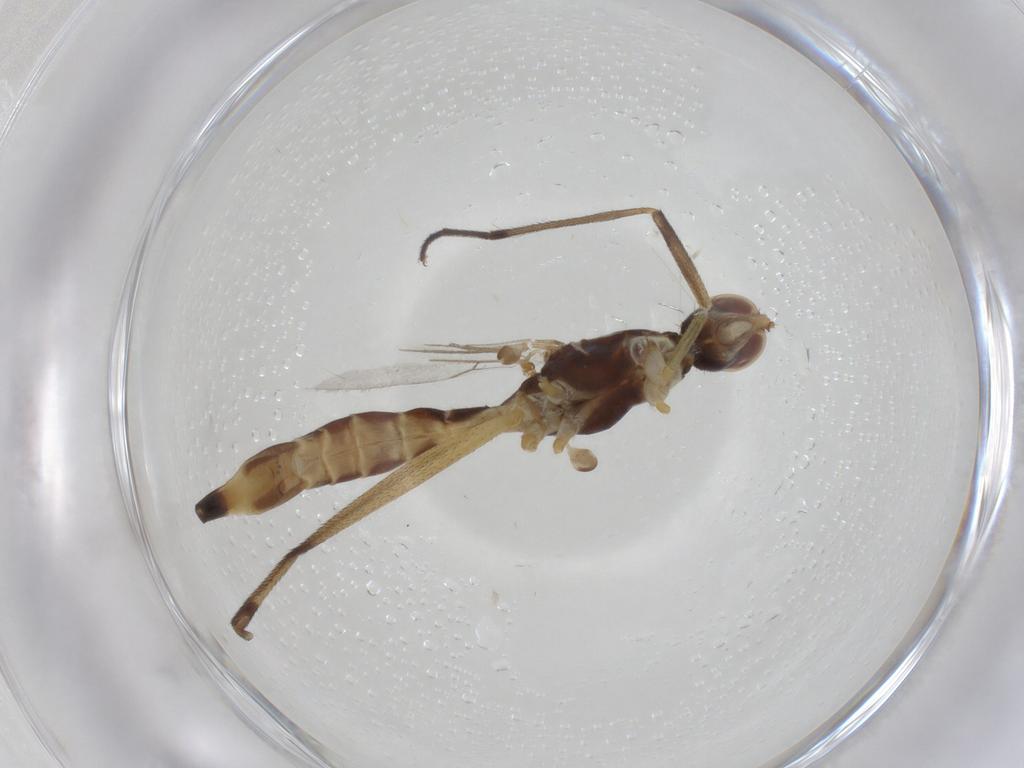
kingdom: Animalia
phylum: Arthropoda
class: Insecta
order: Diptera
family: Micropezidae
